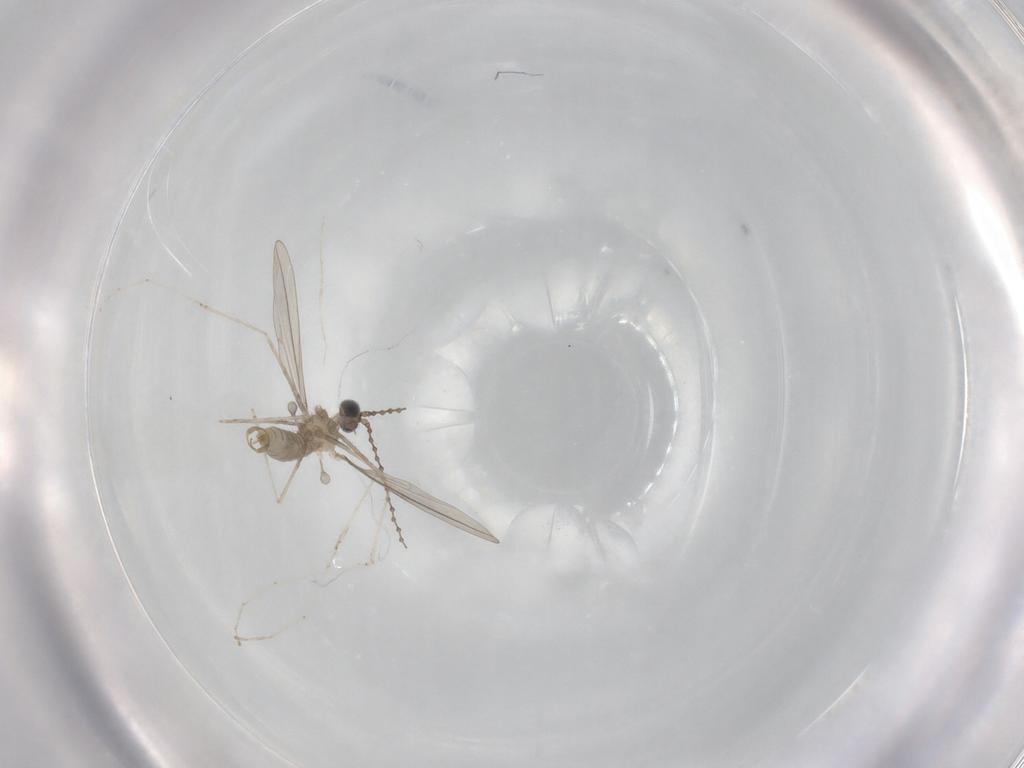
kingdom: Animalia
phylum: Arthropoda
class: Insecta
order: Diptera
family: Cecidomyiidae
